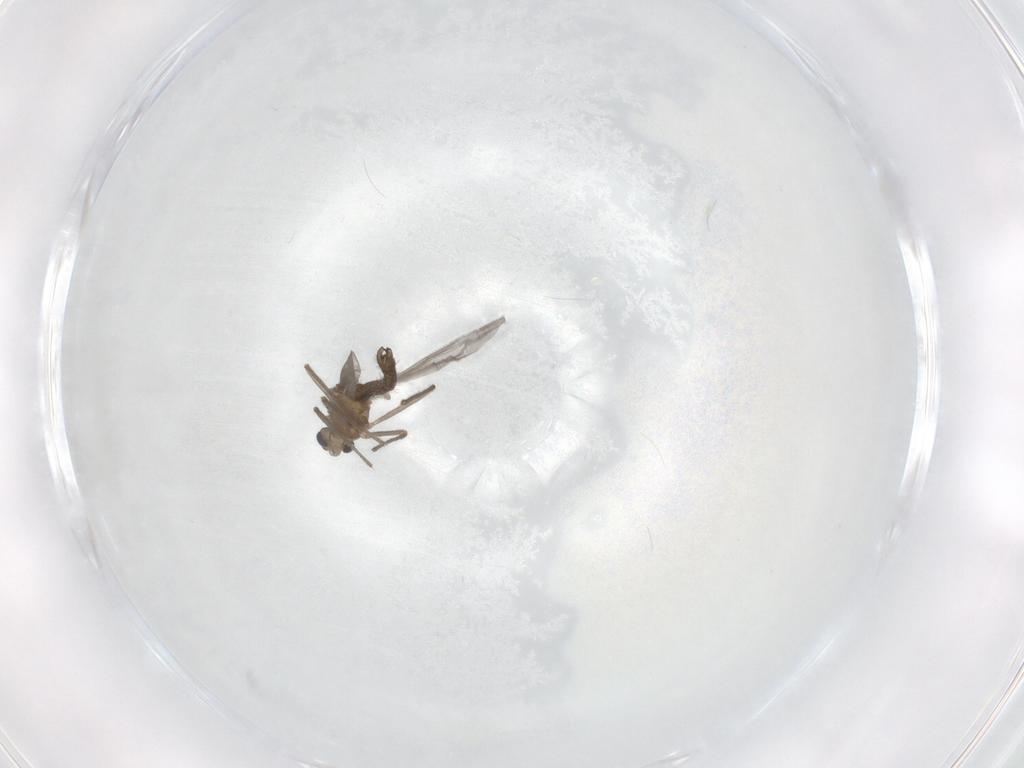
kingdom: Animalia
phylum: Arthropoda
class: Insecta
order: Diptera
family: Chironomidae
